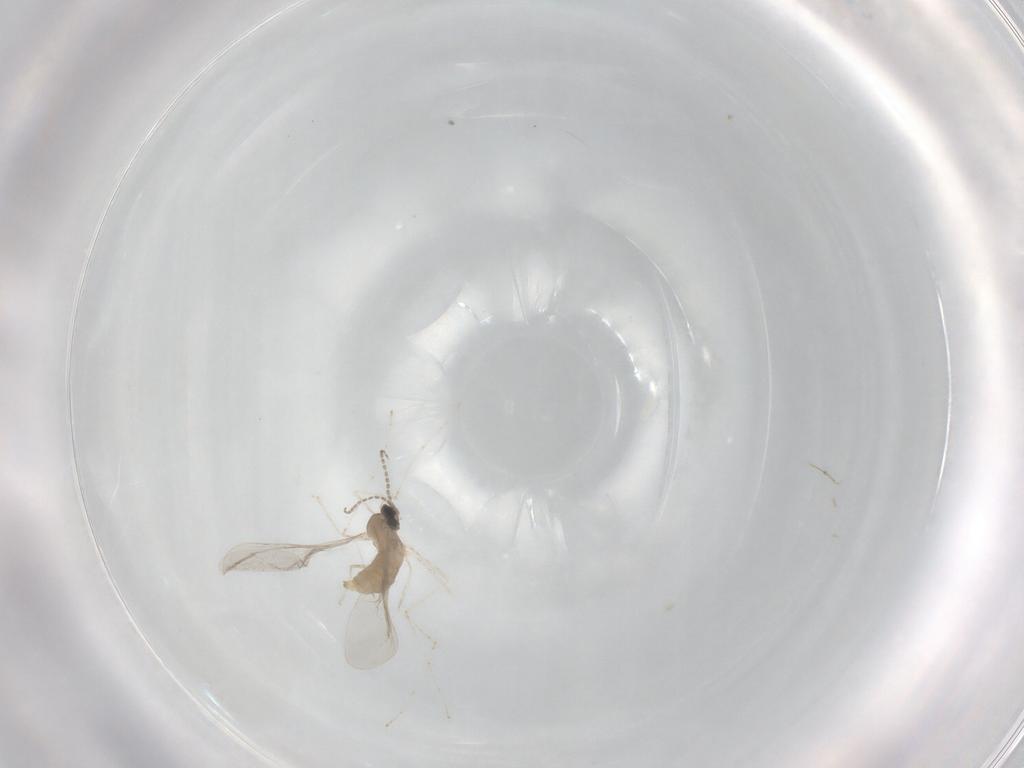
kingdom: Animalia
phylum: Arthropoda
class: Insecta
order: Diptera
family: Cecidomyiidae
